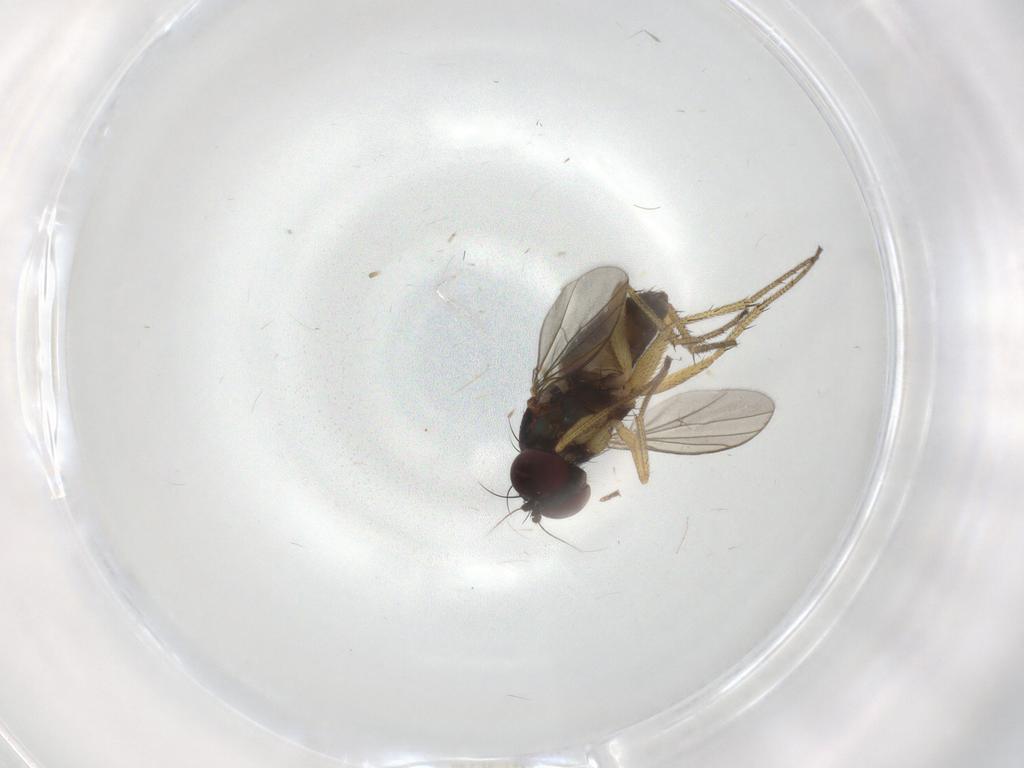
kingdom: Animalia
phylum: Arthropoda
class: Insecta
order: Diptera
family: Dolichopodidae
